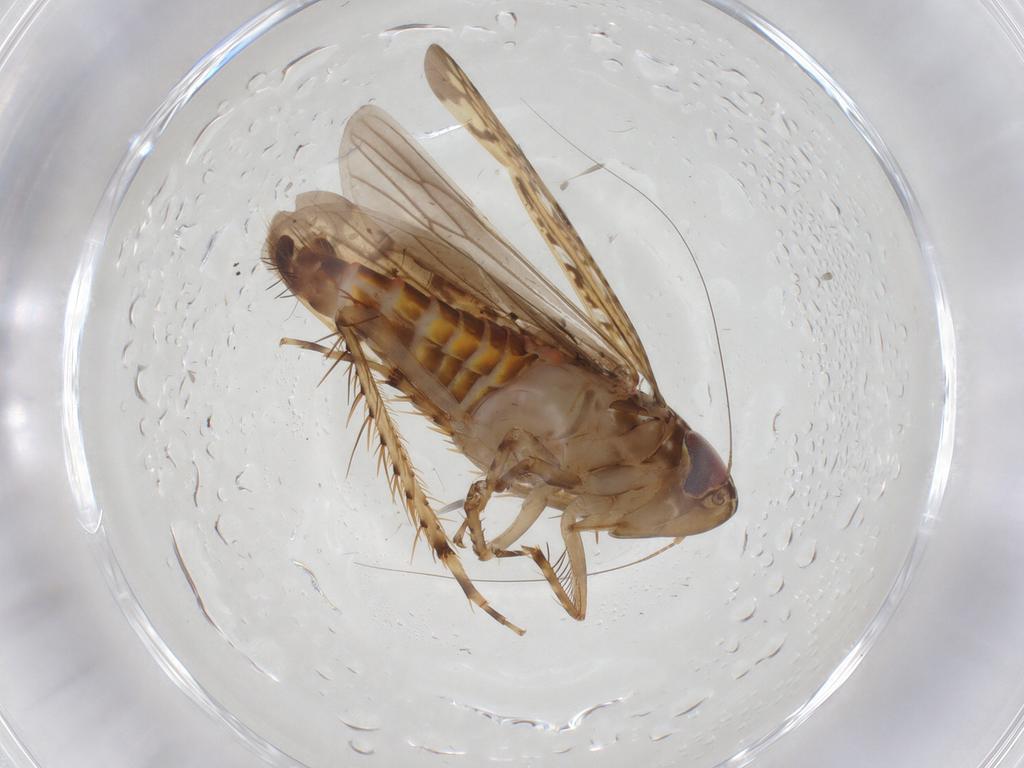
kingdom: Animalia
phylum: Arthropoda
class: Insecta
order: Hemiptera
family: Cicadellidae
